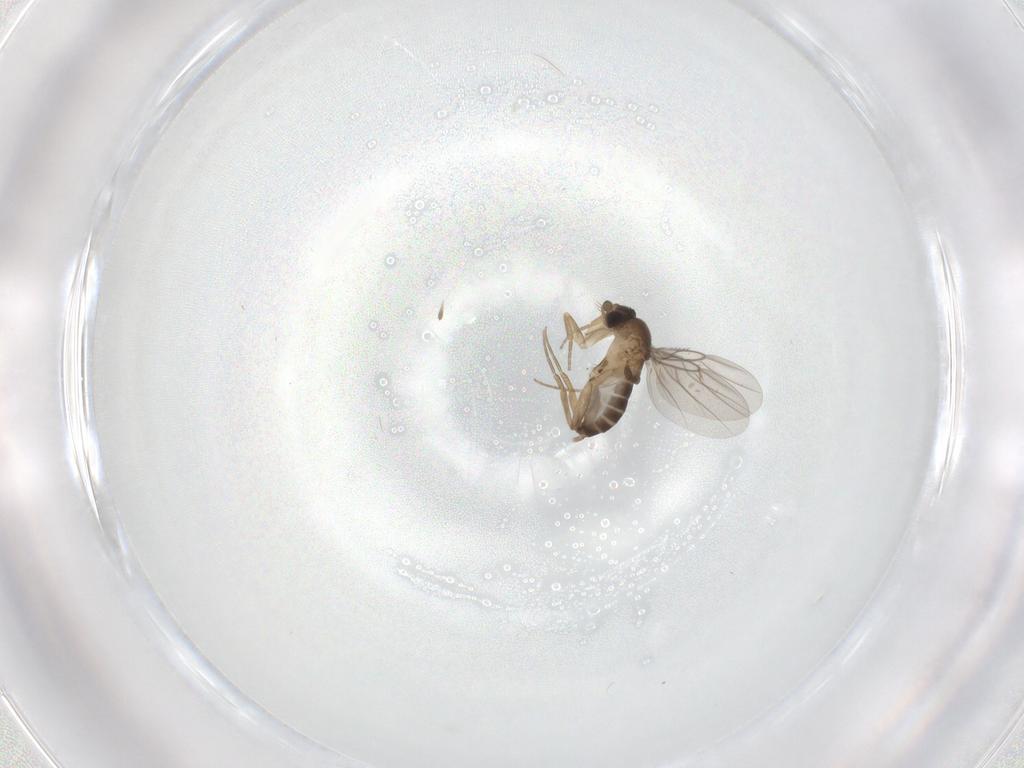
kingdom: Animalia
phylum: Arthropoda
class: Insecta
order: Diptera
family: Phoridae
